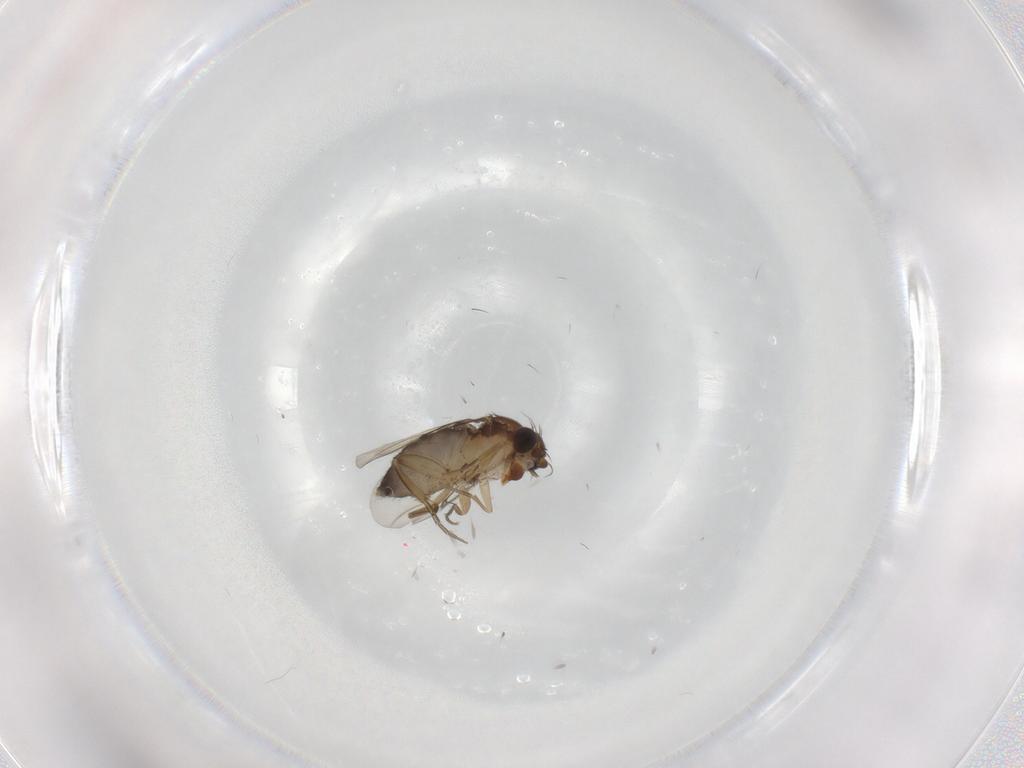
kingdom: Animalia
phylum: Arthropoda
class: Insecta
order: Diptera
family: Phoridae
